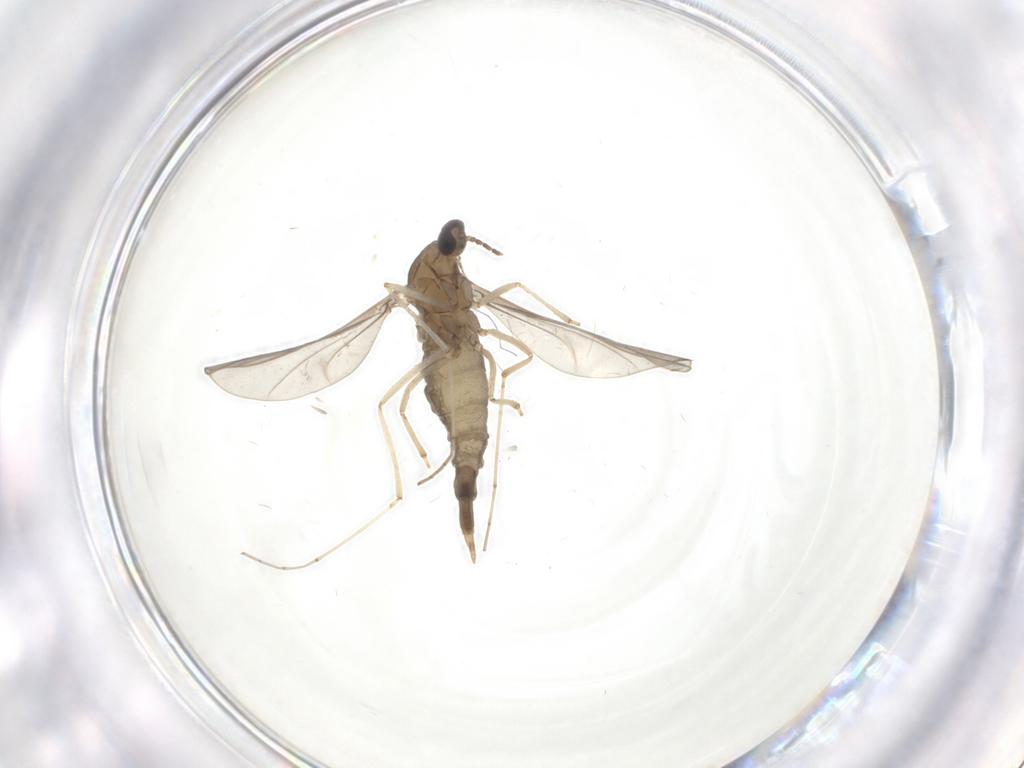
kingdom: Animalia
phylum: Arthropoda
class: Insecta
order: Diptera
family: Cecidomyiidae
